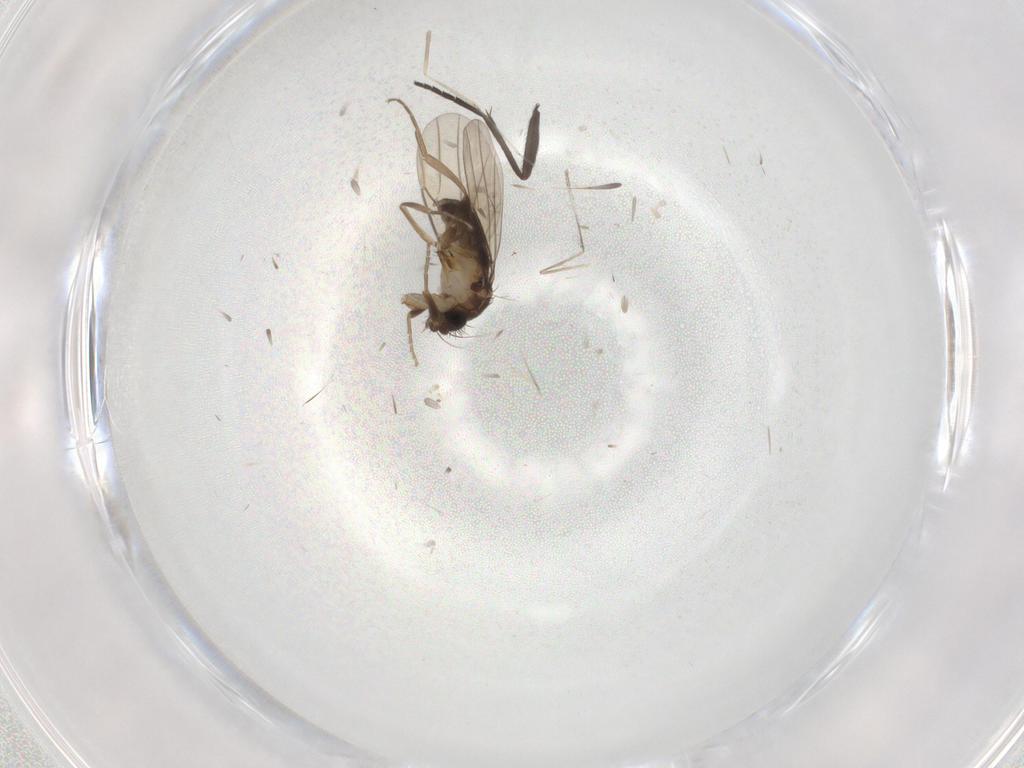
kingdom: Animalia
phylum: Arthropoda
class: Insecta
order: Diptera
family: Phoridae
